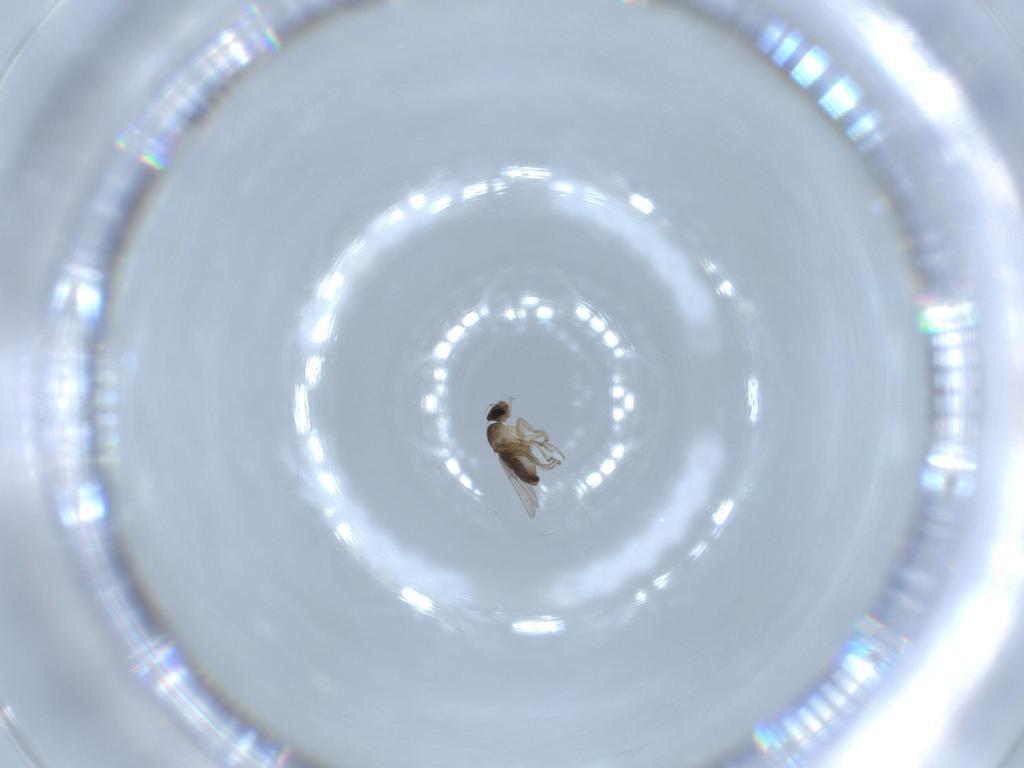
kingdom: Animalia
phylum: Arthropoda
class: Insecta
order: Diptera
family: Phoridae
